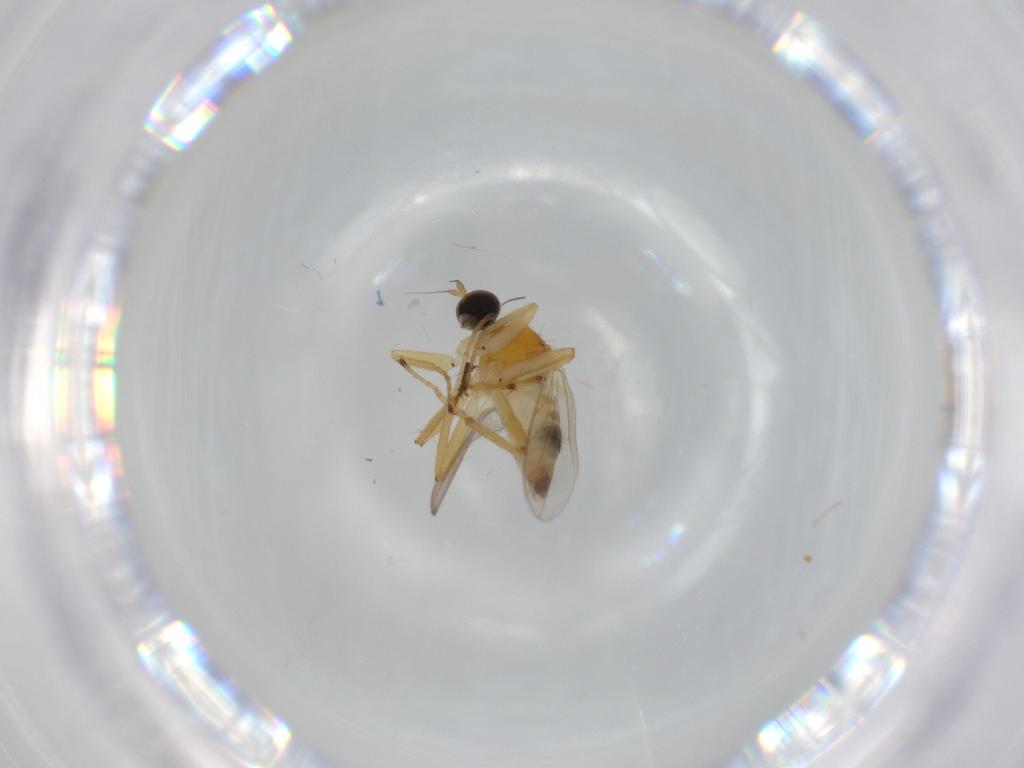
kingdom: Animalia
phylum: Arthropoda
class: Insecta
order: Diptera
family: Hybotidae
